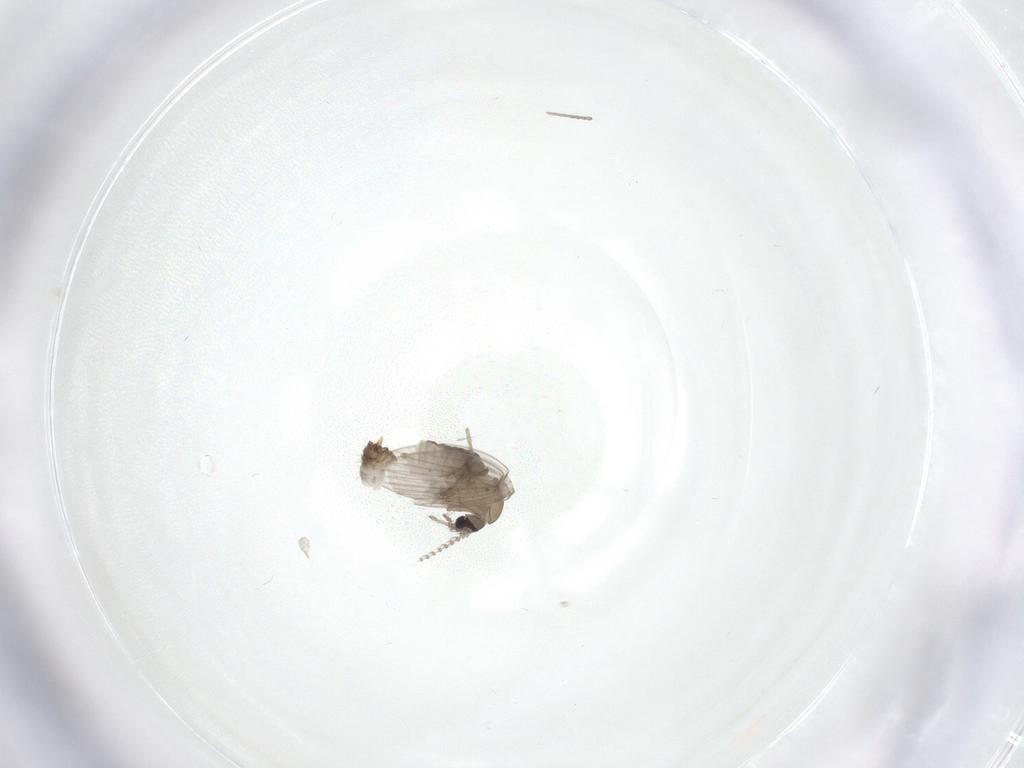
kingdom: Animalia
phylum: Arthropoda
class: Insecta
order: Diptera
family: Psychodidae
